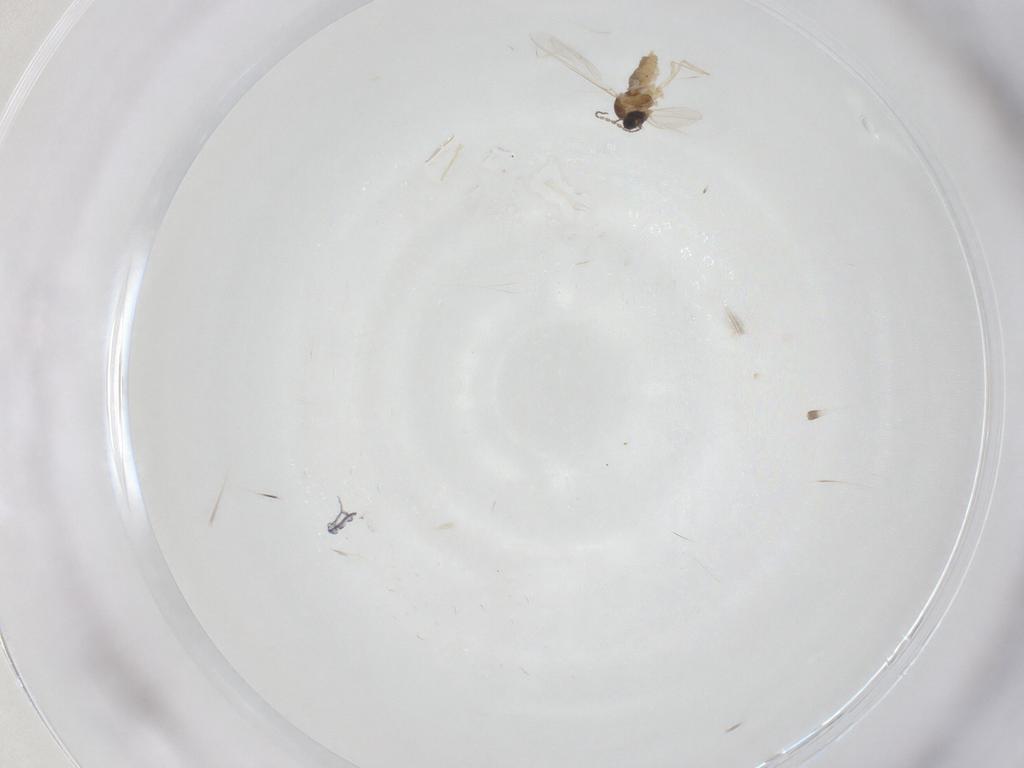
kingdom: Animalia
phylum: Arthropoda
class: Insecta
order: Diptera
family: Cecidomyiidae
